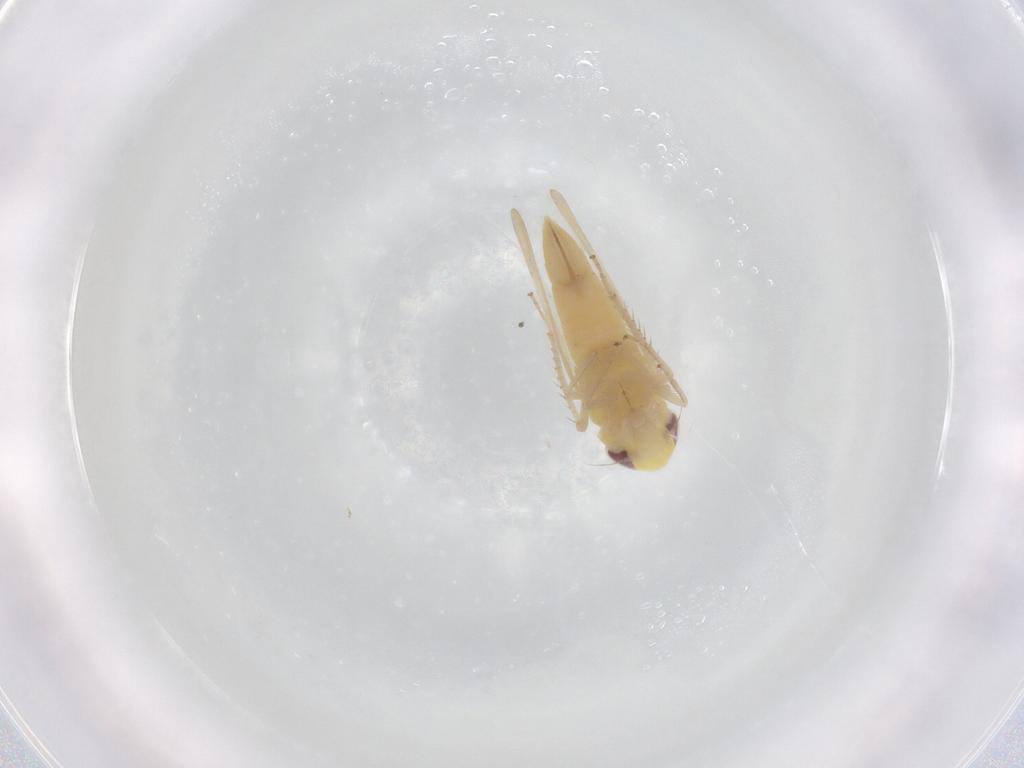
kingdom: Animalia
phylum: Arthropoda
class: Insecta
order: Hemiptera
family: Cicadellidae
